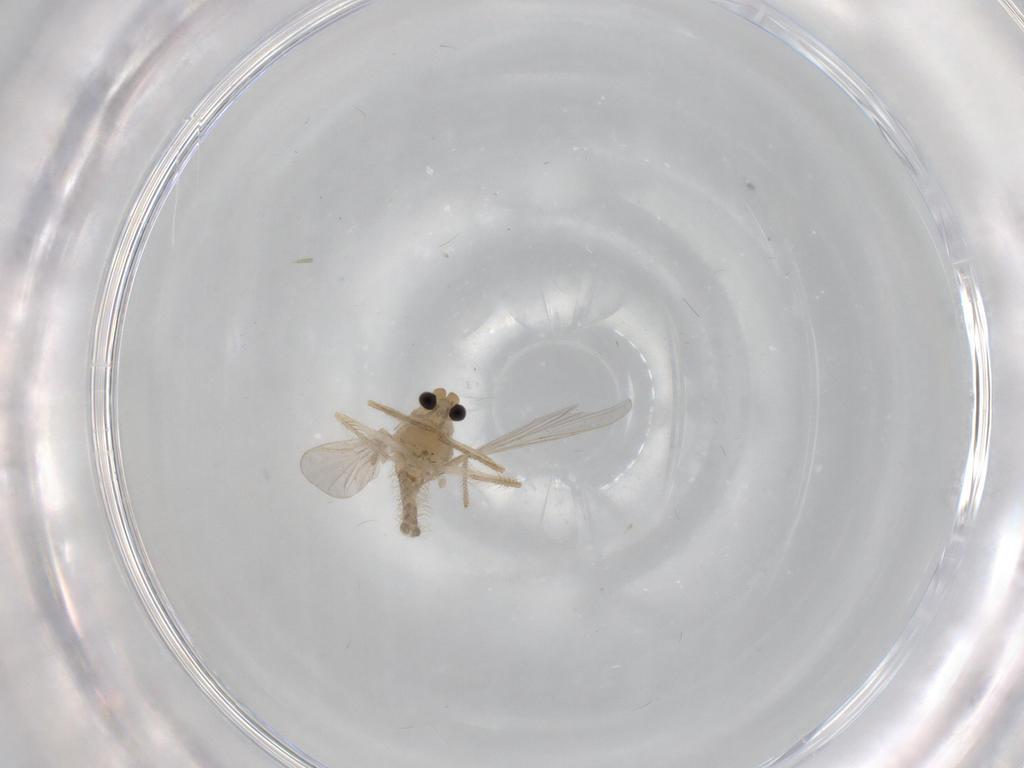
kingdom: Animalia
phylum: Arthropoda
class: Insecta
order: Diptera
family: Chironomidae
